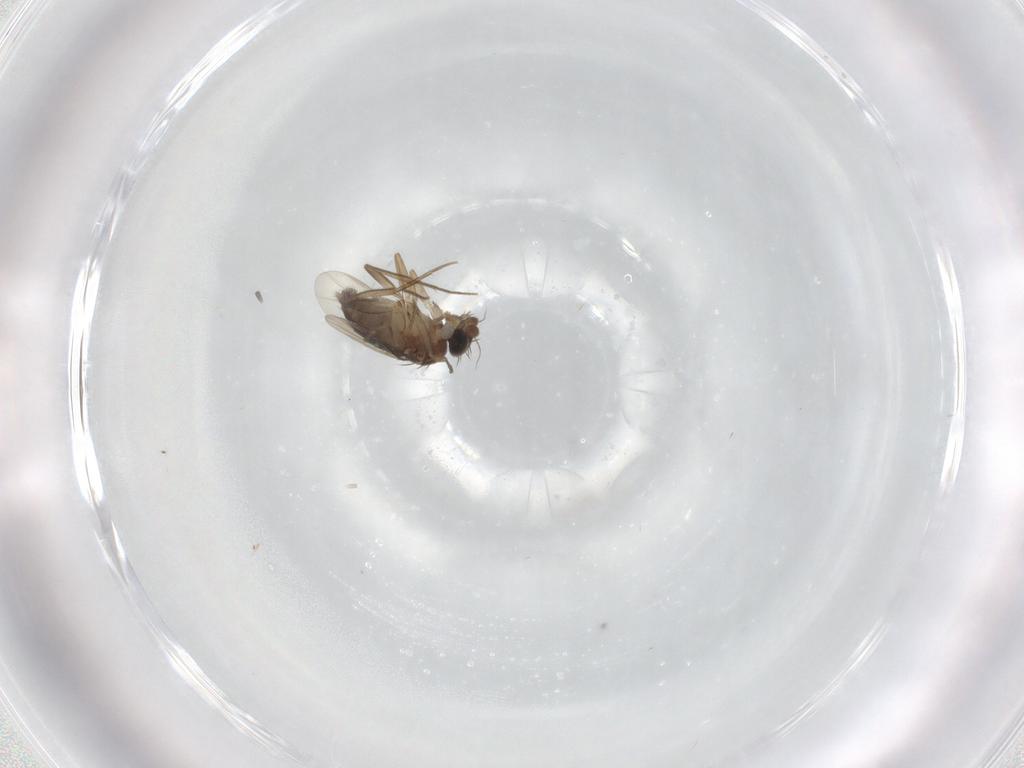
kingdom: Animalia
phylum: Arthropoda
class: Insecta
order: Diptera
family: Phoridae
